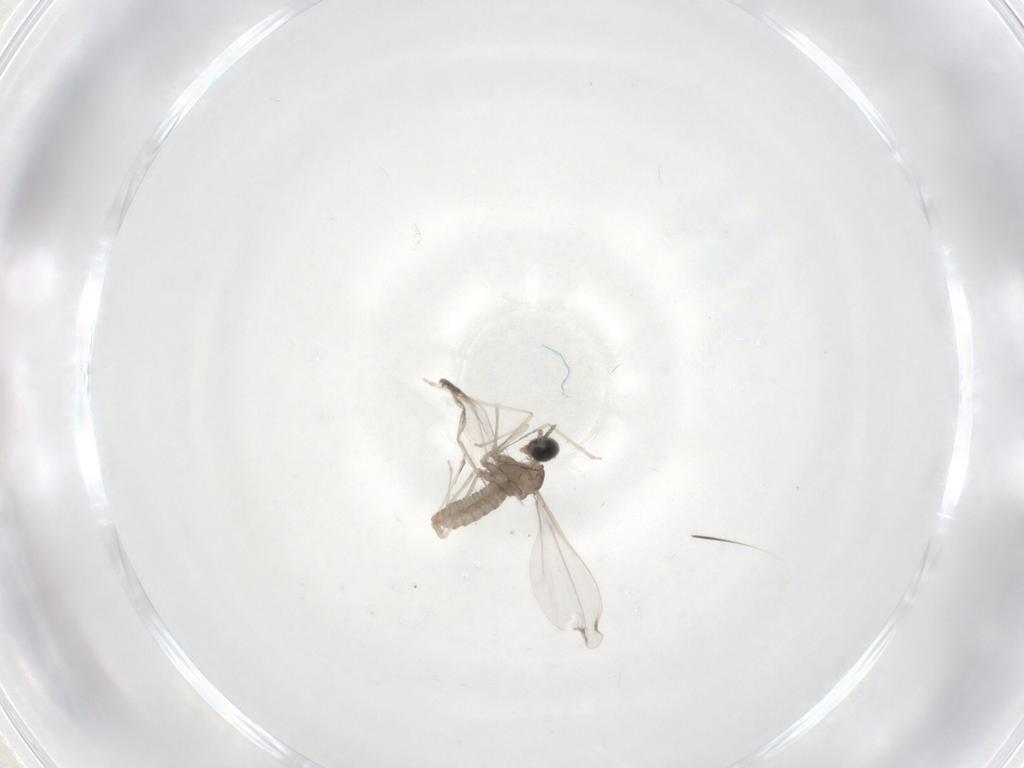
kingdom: Animalia
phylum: Arthropoda
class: Insecta
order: Diptera
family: Cecidomyiidae
